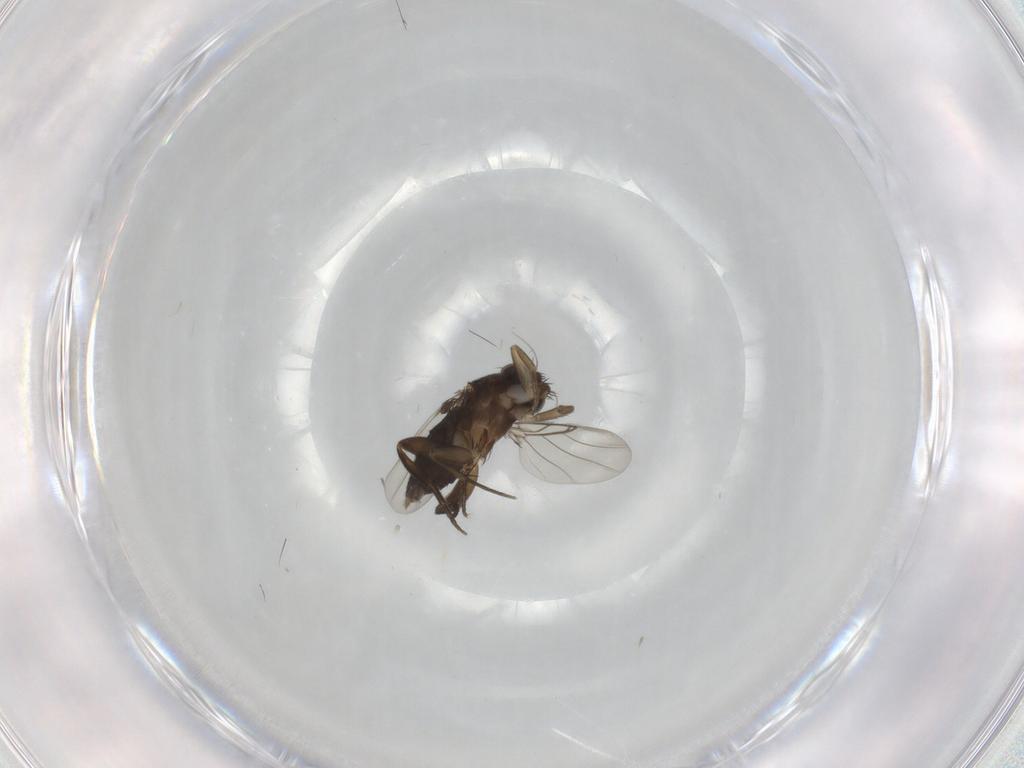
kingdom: Animalia
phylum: Arthropoda
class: Insecta
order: Diptera
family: Phoridae
